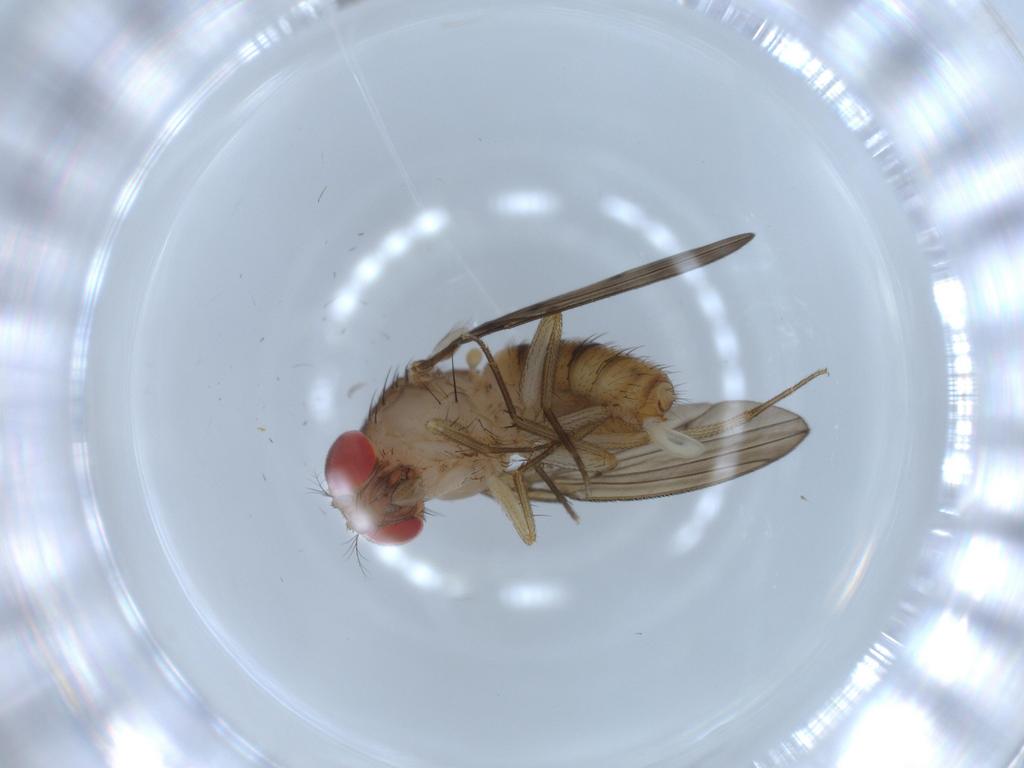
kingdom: Animalia
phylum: Arthropoda
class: Insecta
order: Diptera
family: Drosophilidae
